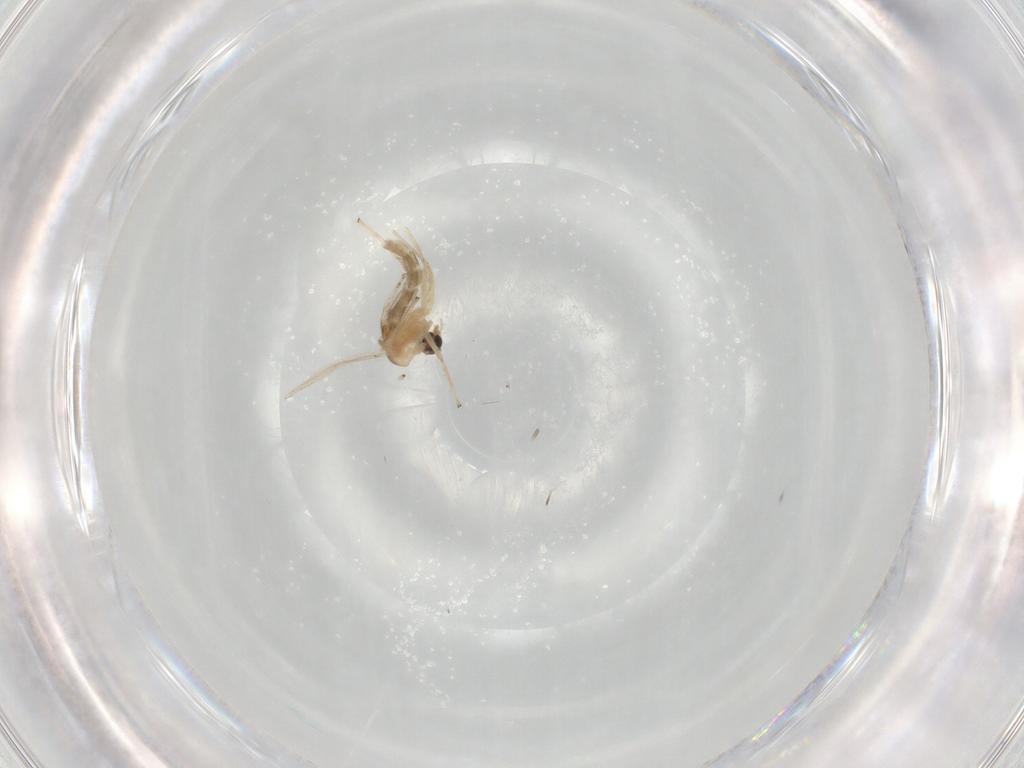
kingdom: Animalia
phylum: Arthropoda
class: Insecta
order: Diptera
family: Chironomidae
